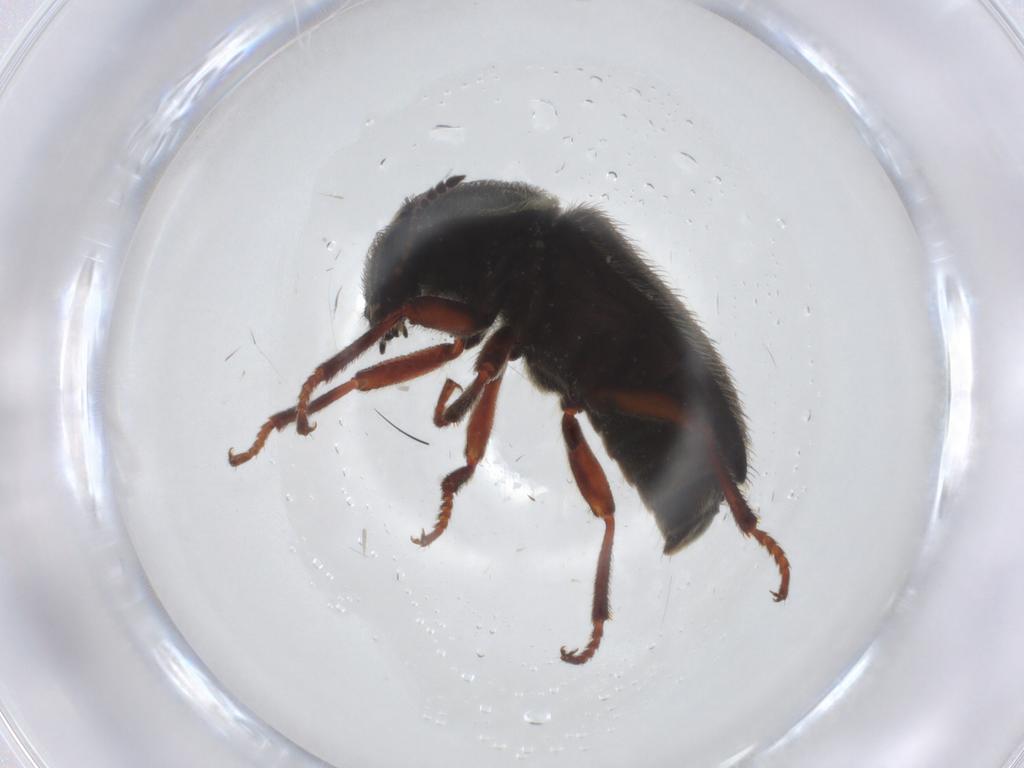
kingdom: Animalia
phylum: Arthropoda
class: Insecta
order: Coleoptera
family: Melyridae
